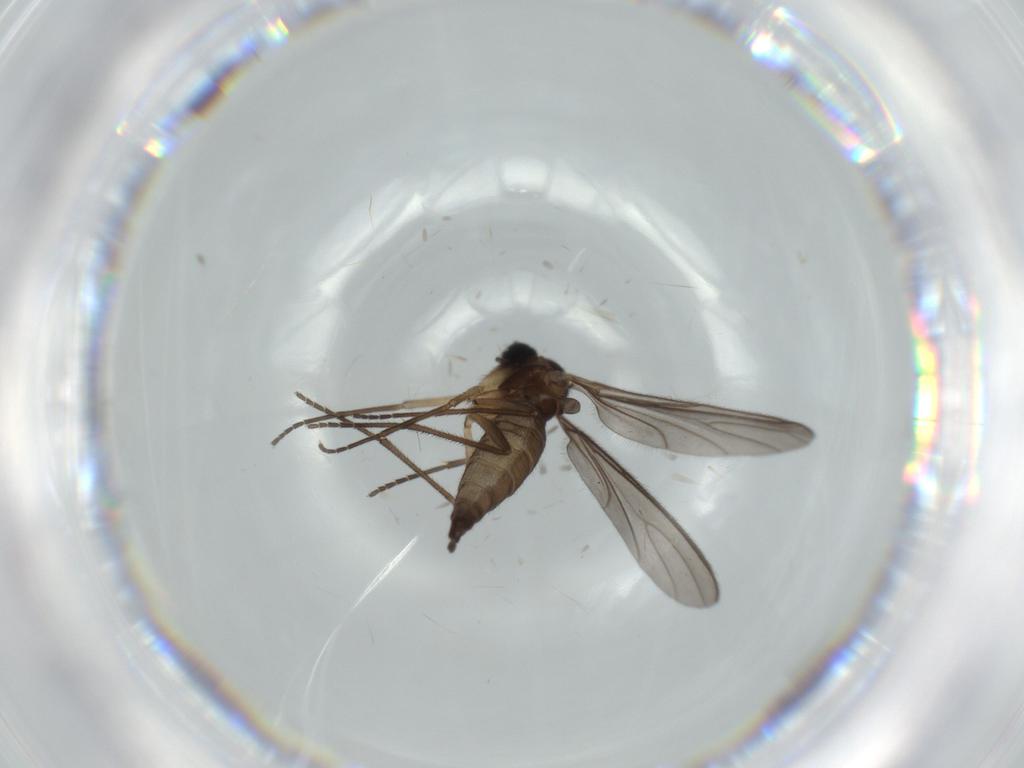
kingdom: Animalia
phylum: Arthropoda
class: Insecta
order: Diptera
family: Sciaridae
